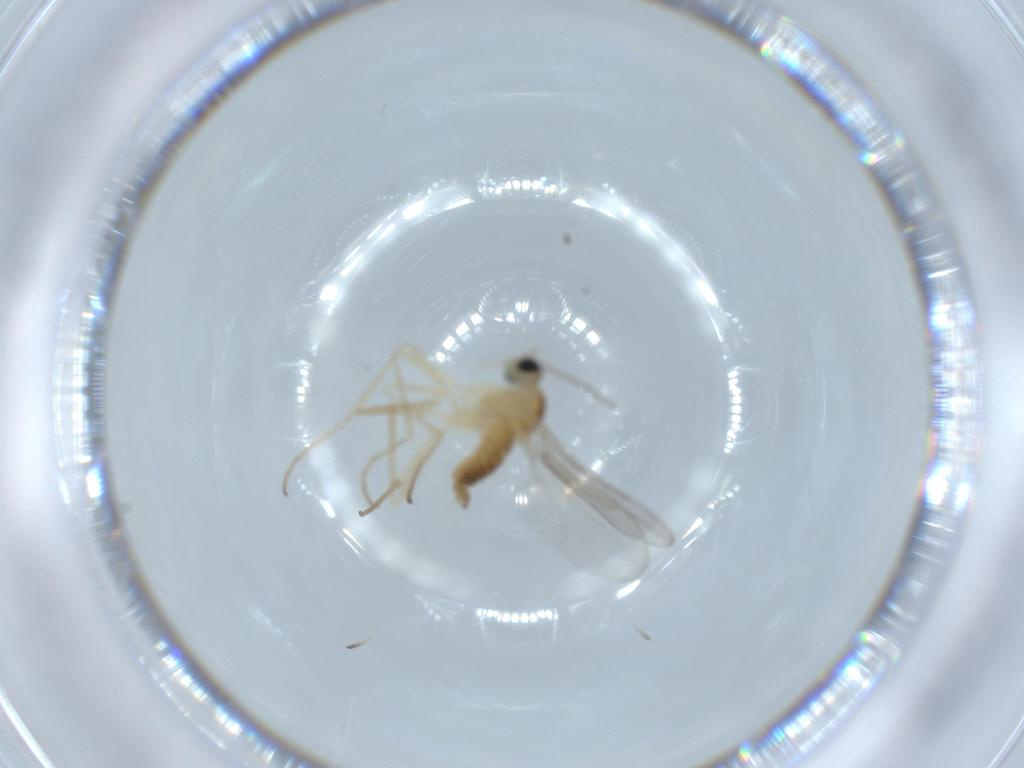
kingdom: Animalia
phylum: Arthropoda
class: Insecta
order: Diptera
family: Cecidomyiidae
